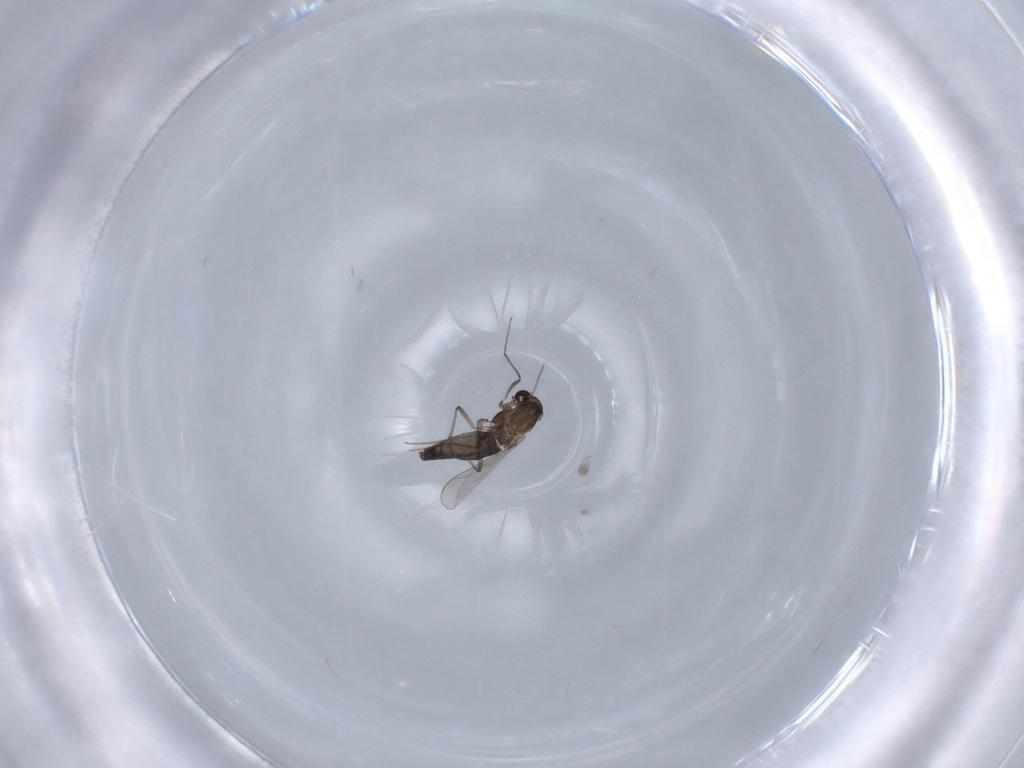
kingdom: Animalia
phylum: Arthropoda
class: Insecta
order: Diptera
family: Chironomidae
